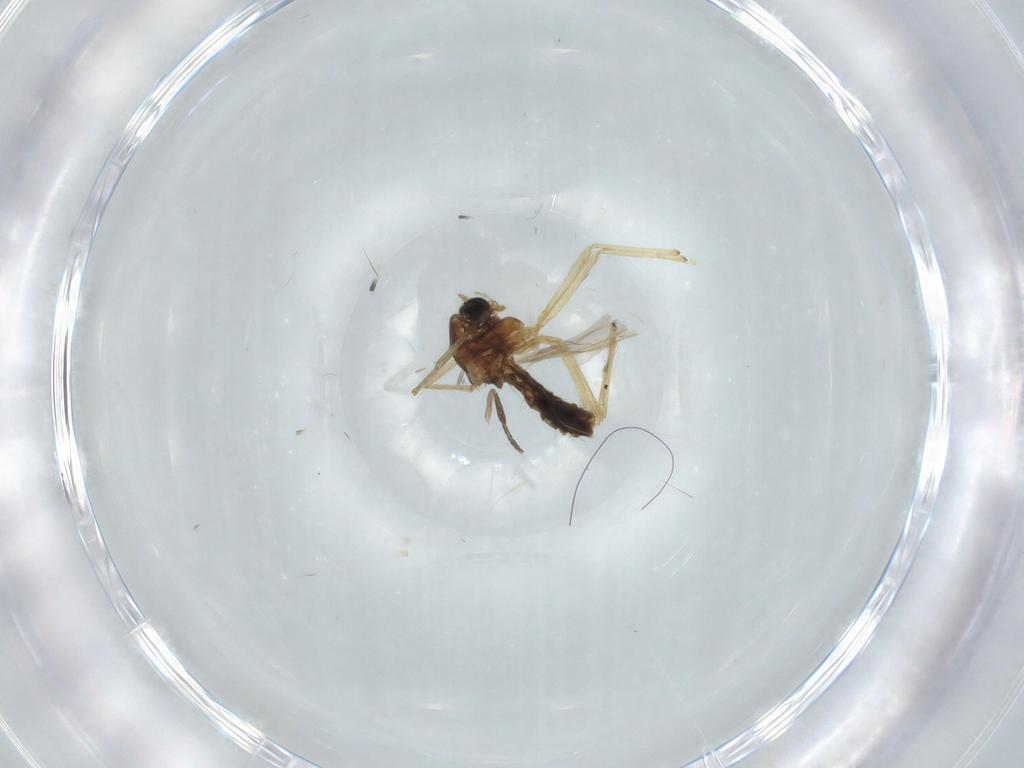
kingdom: Animalia
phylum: Arthropoda
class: Insecta
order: Diptera
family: Chironomidae
